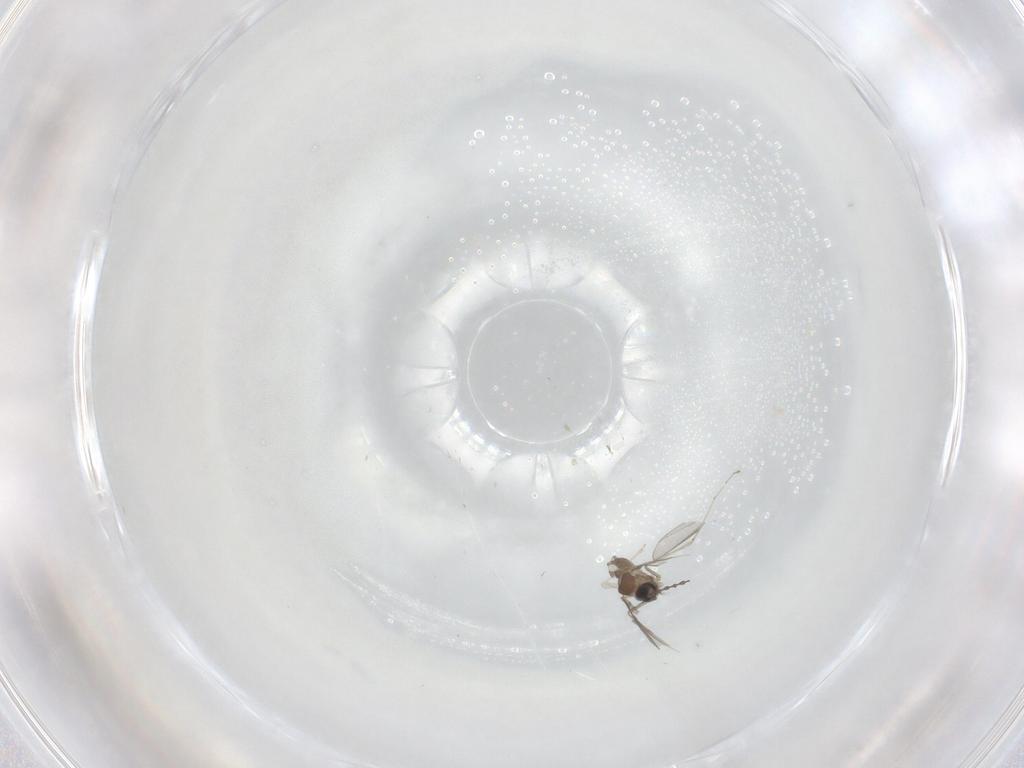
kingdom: Animalia
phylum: Arthropoda
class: Insecta
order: Diptera
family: Cecidomyiidae
